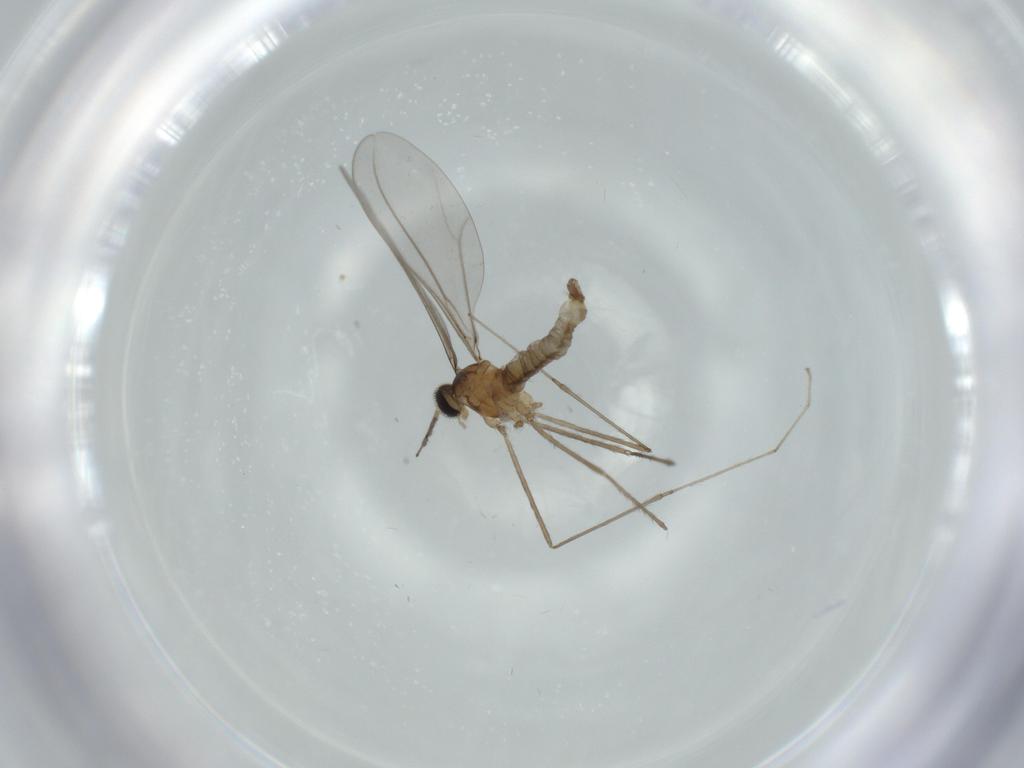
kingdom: Animalia
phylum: Arthropoda
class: Insecta
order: Diptera
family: Cecidomyiidae
